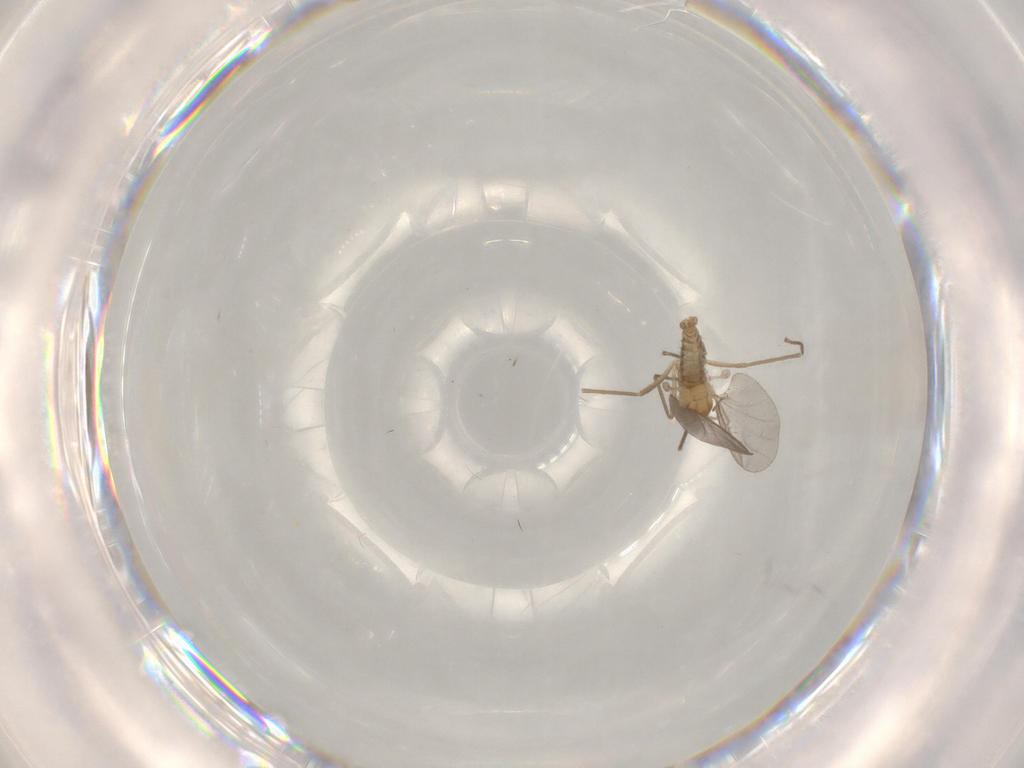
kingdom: Animalia
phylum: Arthropoda
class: Insecta
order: Diptera
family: Cecidomyiidae
